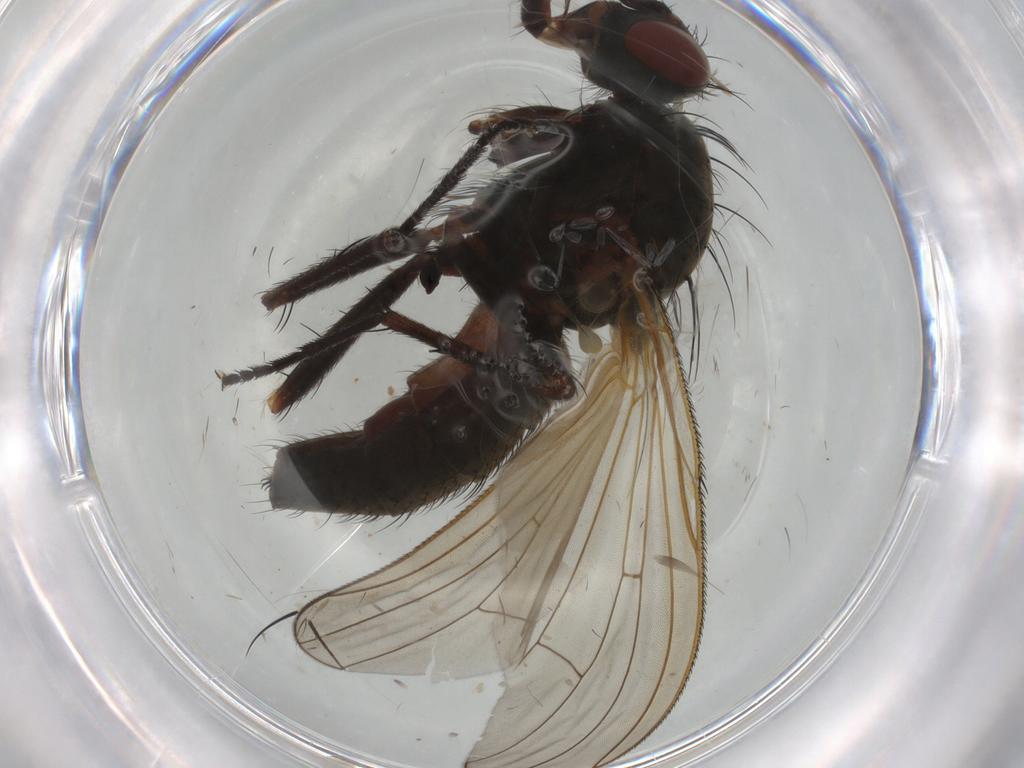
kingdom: Animalia
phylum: Arthropoda
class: Insecta
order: Diptera
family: Anthomyiidae
